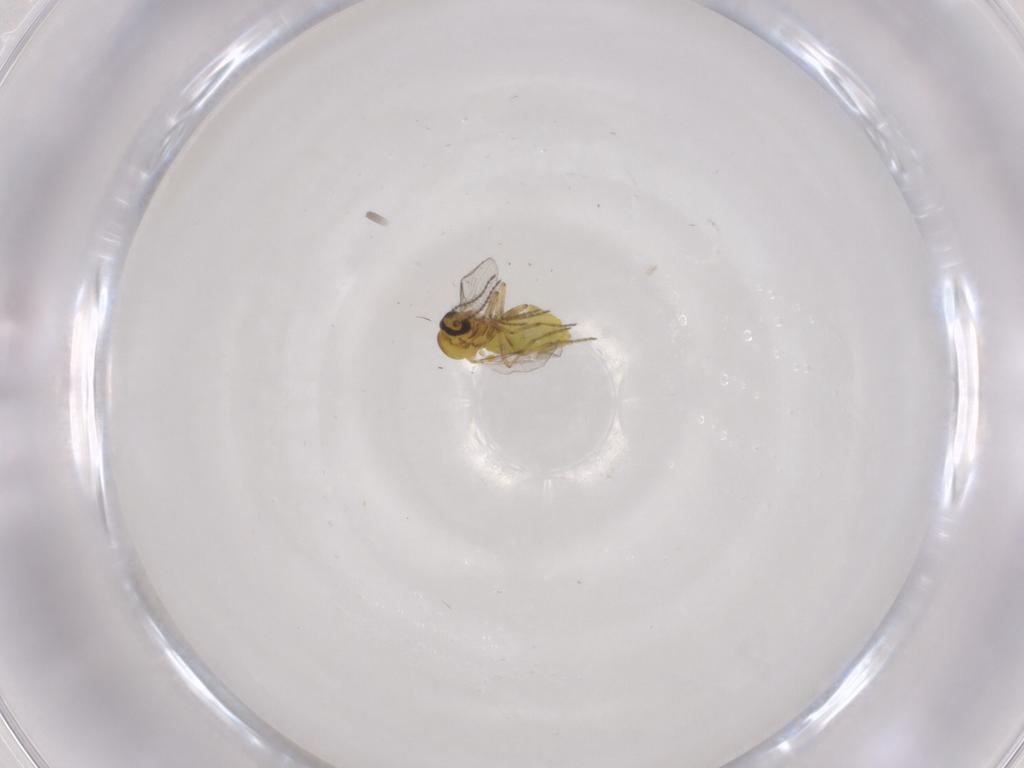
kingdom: Animalia
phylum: Arthropoda
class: Insecta
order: Diptera
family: Ceratopogonidae
